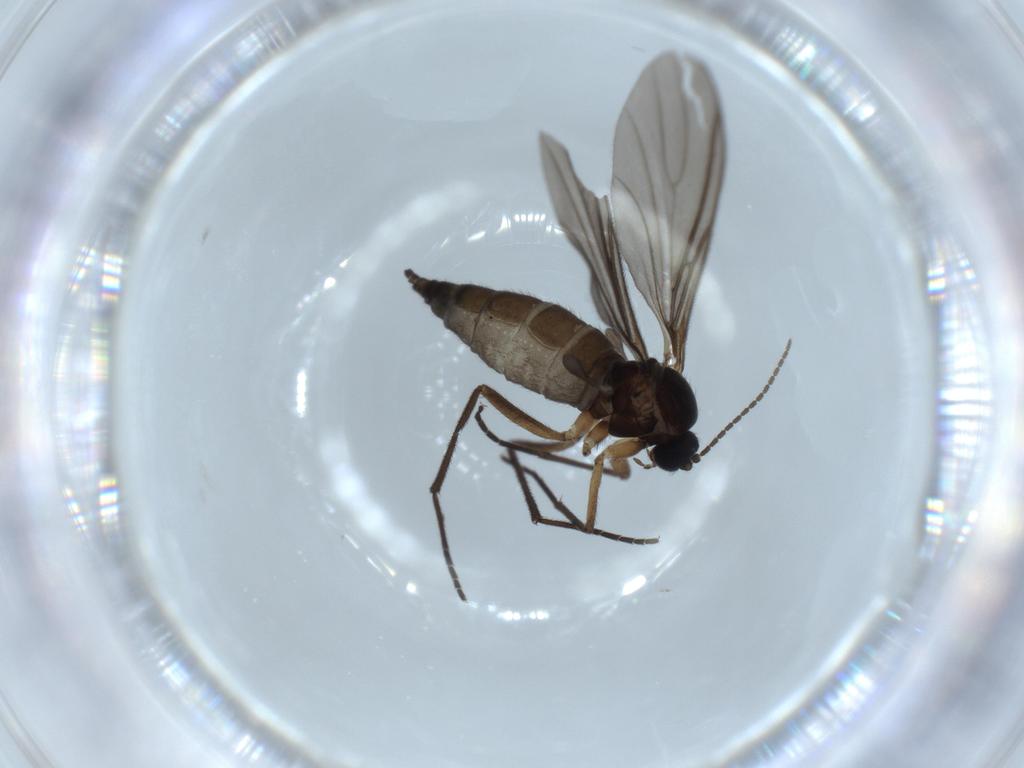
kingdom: Animalia
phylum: Arthropoda
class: Insecta
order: Diptera
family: Sciaridae
